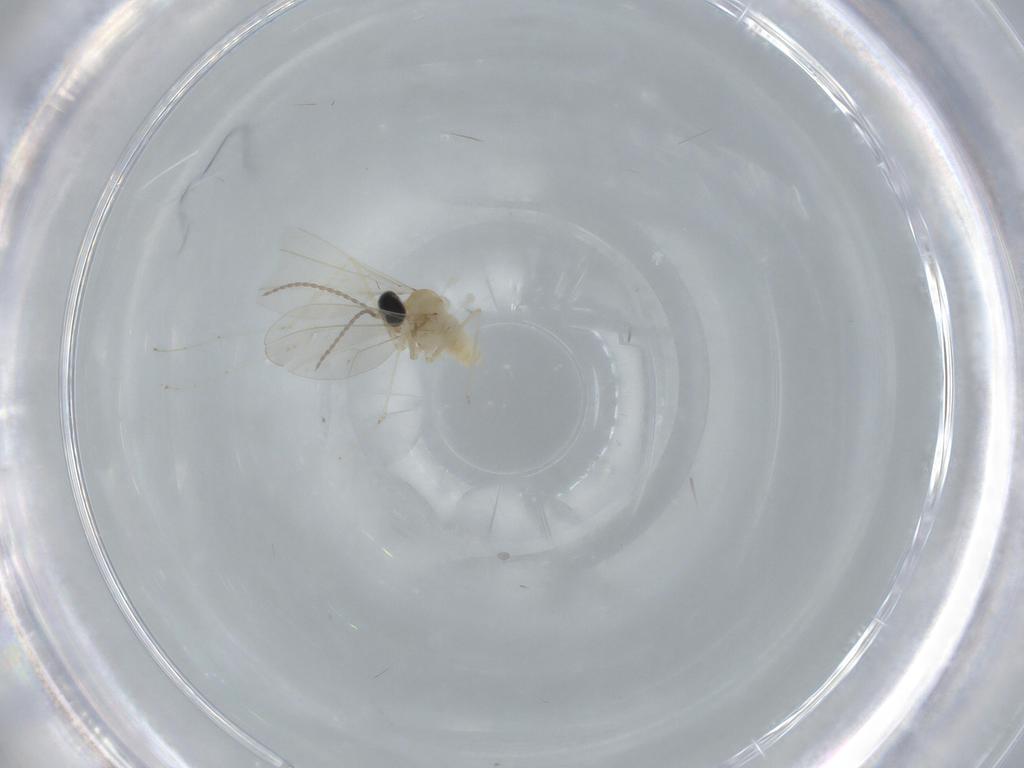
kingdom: Animalia
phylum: Arthropoda
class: Insecta
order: Diptera
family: Cecidomyiidae
